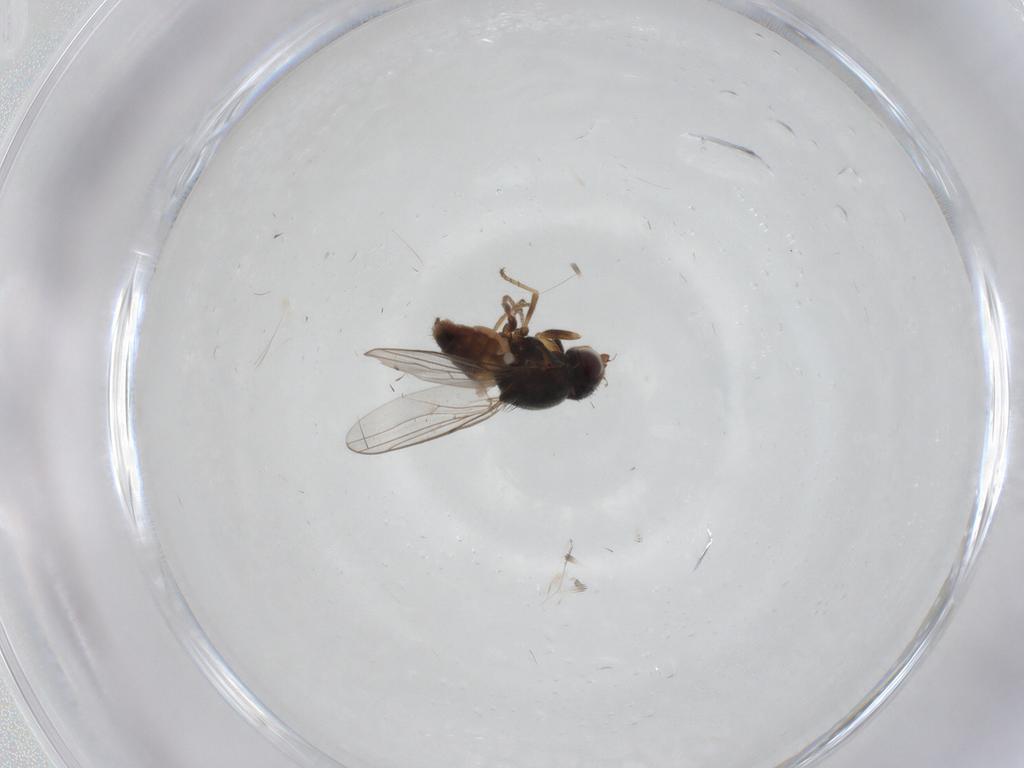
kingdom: Animalia
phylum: Arthropoda
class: Insecta
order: Diptera
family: Chloropidae
